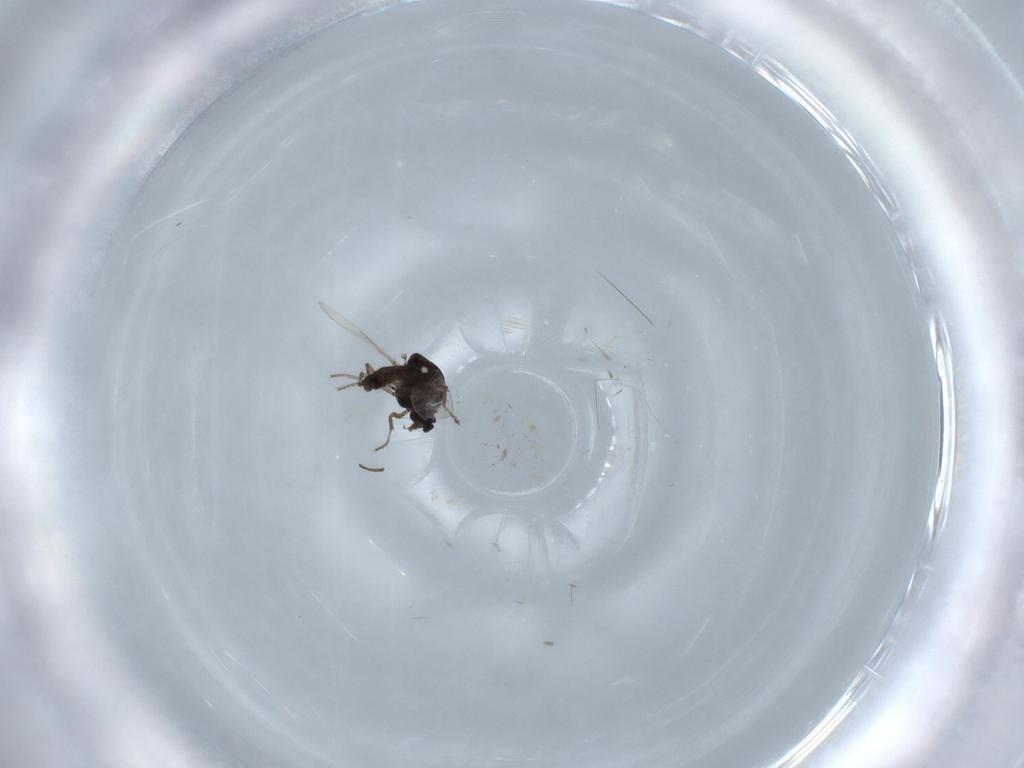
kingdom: Animalia
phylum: Arthropoda
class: Insecta
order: Diptera
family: Ceratopogonidae
